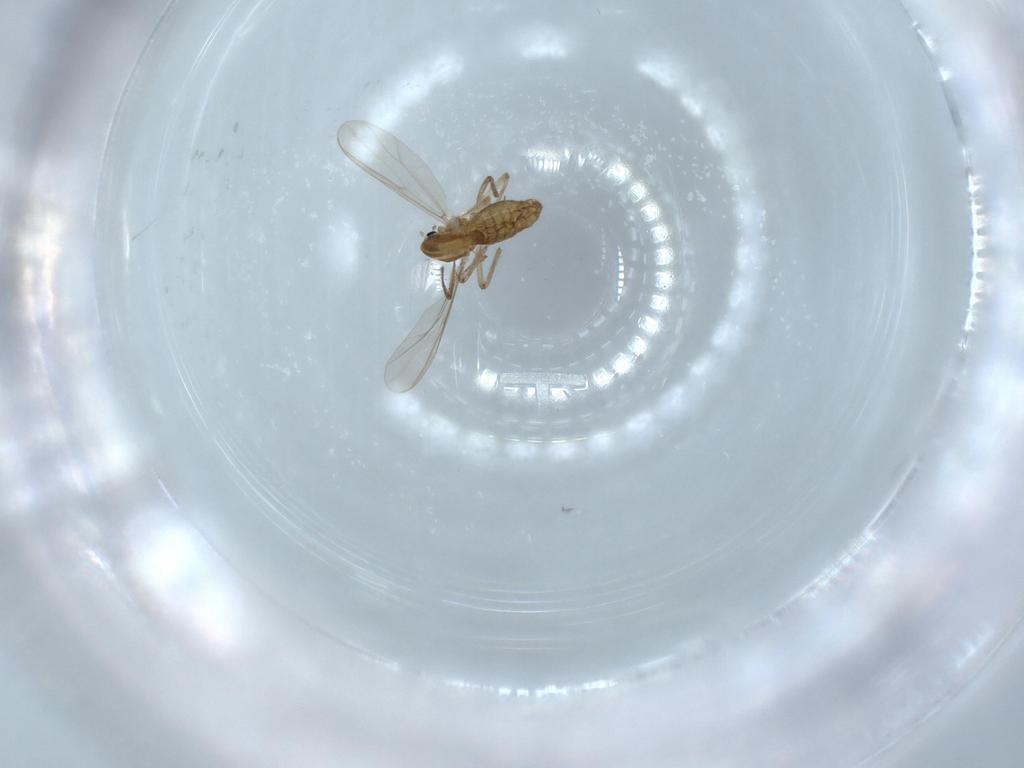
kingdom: Animalia
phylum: Arthropoda
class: Insecta
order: Diptera
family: Chironomidae
